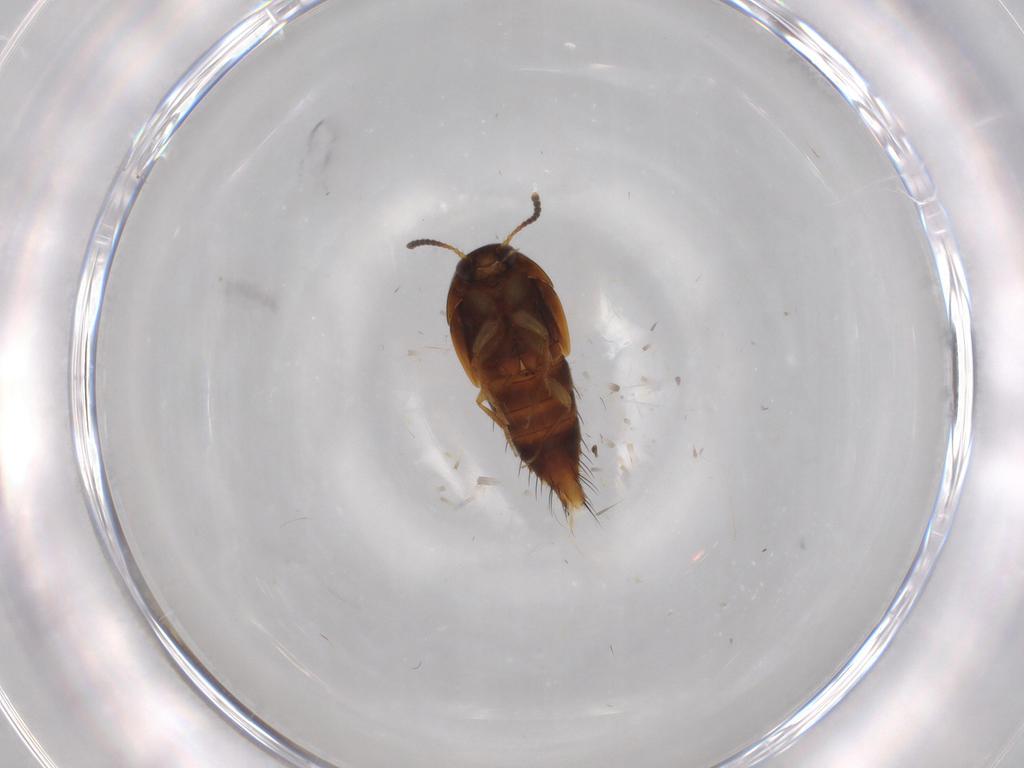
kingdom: Animalia
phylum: Arthropoda
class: Insecta
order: Coleoptera
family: Staphylinidae
